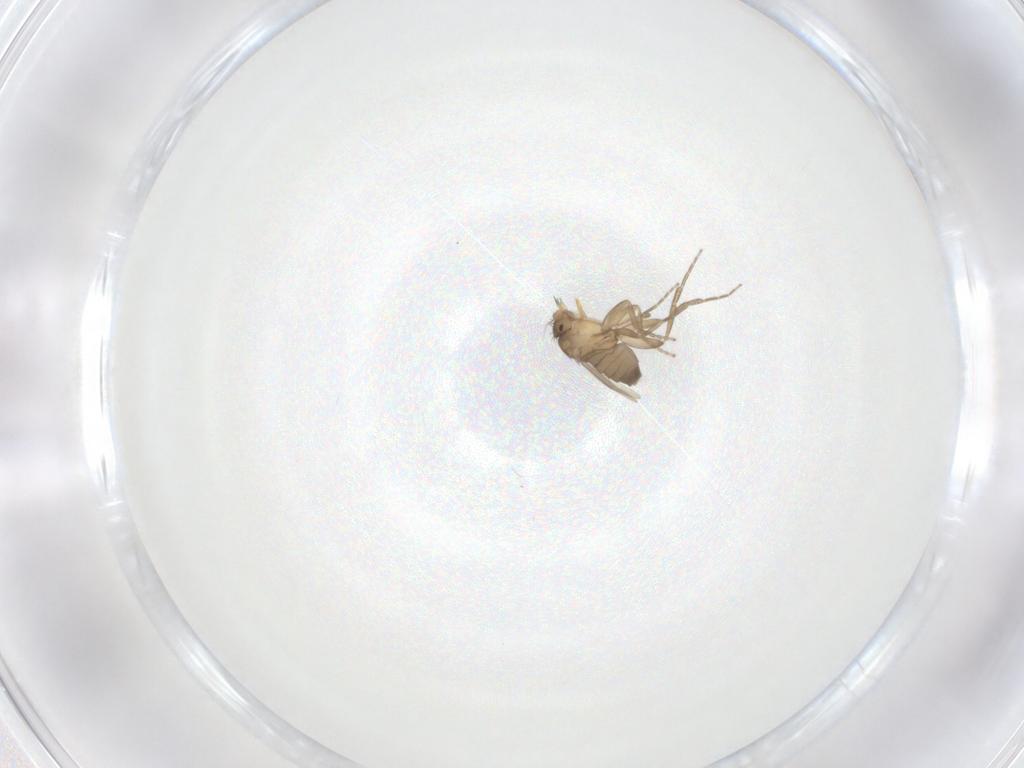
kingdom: Animalia
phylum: Arthropoda
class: Insecta
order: Diptera
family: Phoridae
